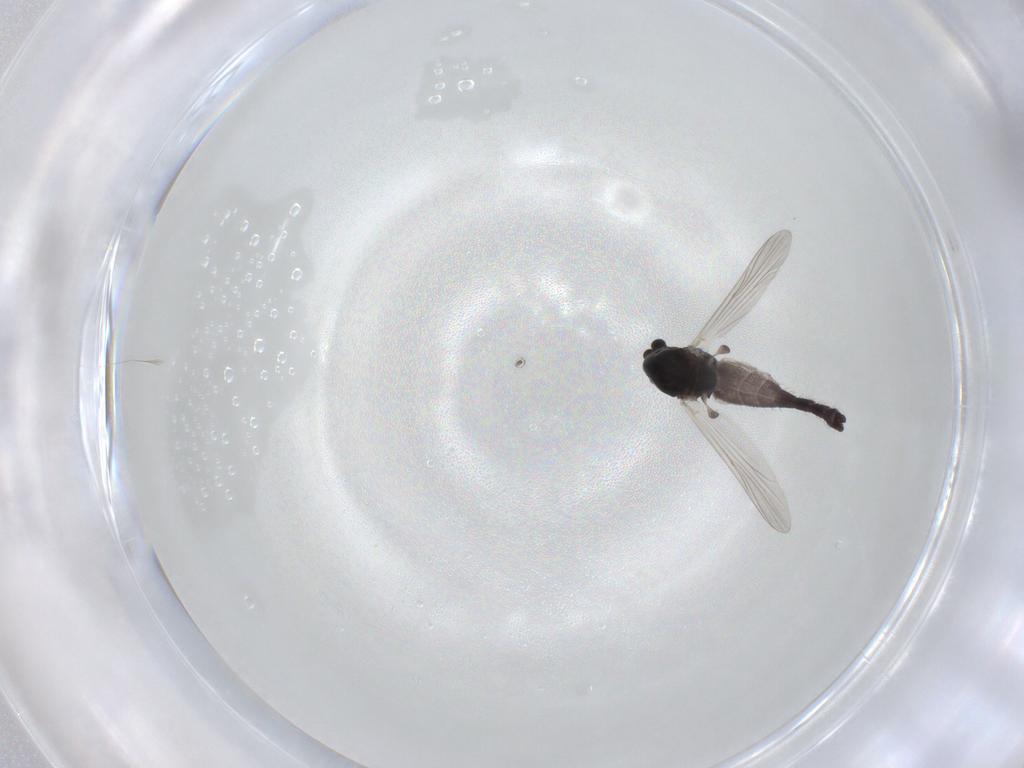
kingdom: Animalia
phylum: Arthropoda
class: Insecta
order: Diptera
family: Chironomidae
